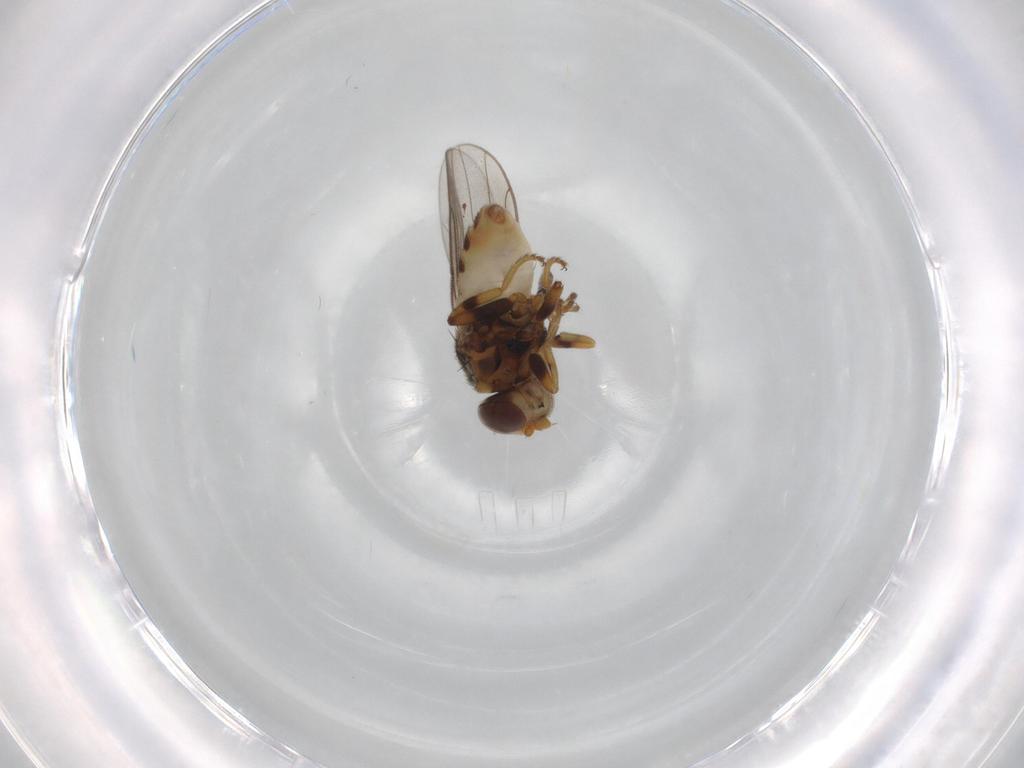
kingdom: Animalia
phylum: Arthropoda
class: Insecta
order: Diptera
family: Chloropidae
